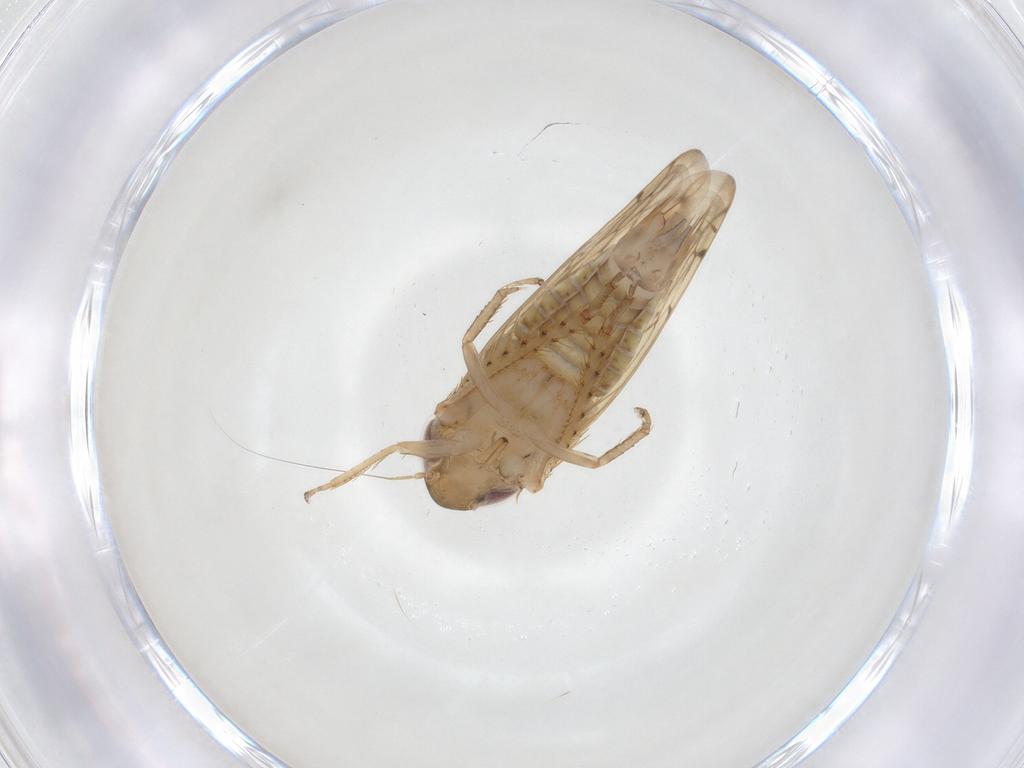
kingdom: Animalia
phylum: Arthropoda
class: Insecta
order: Hemiptera
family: Cicadellidae
